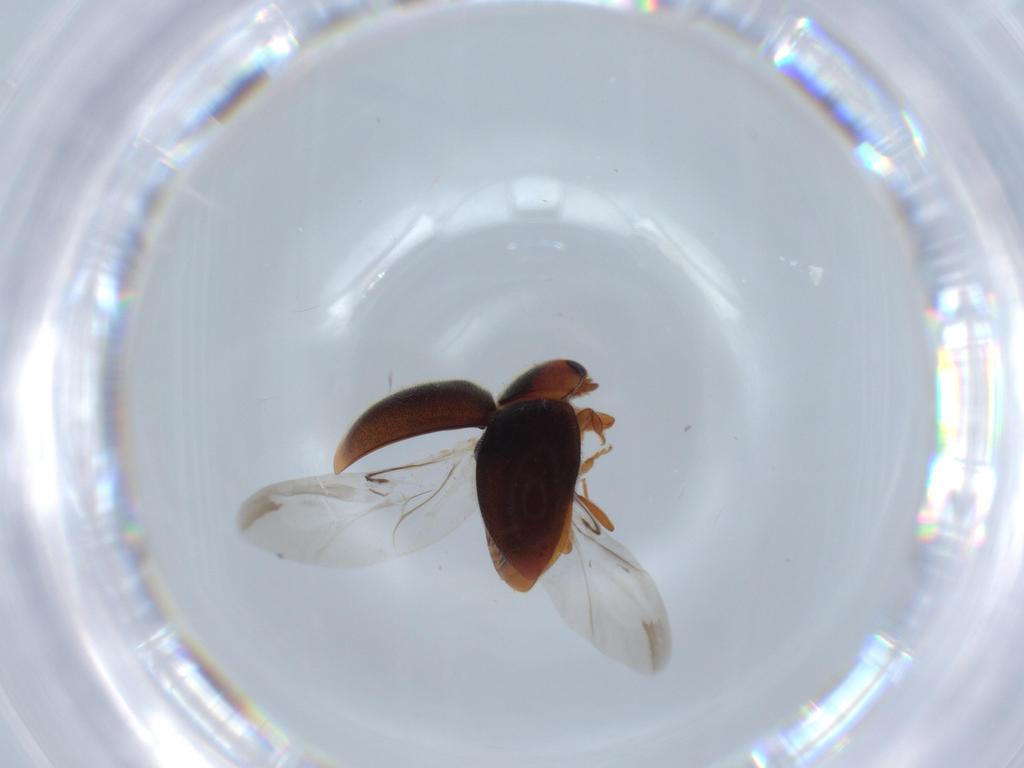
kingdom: Animalia
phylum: Arthropoda
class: Insecta
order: Coleoptera
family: Coccinellidae
